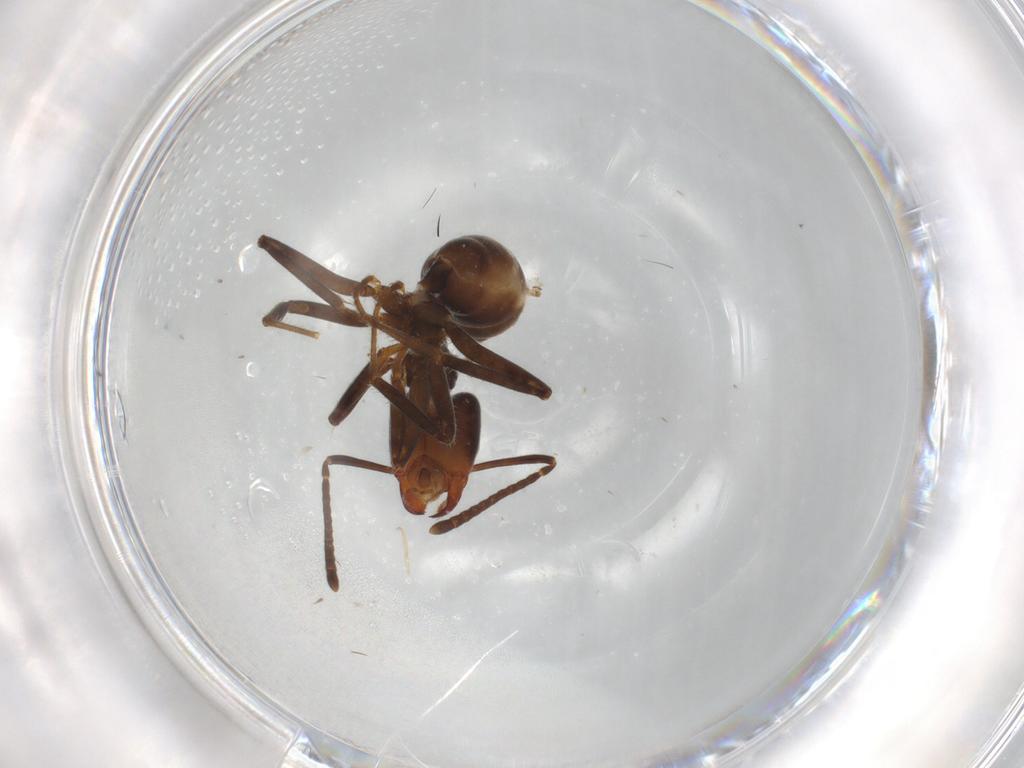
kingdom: Animalia
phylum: Arthropoda
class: Insecta
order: Hymenoptera
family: Formicidae
